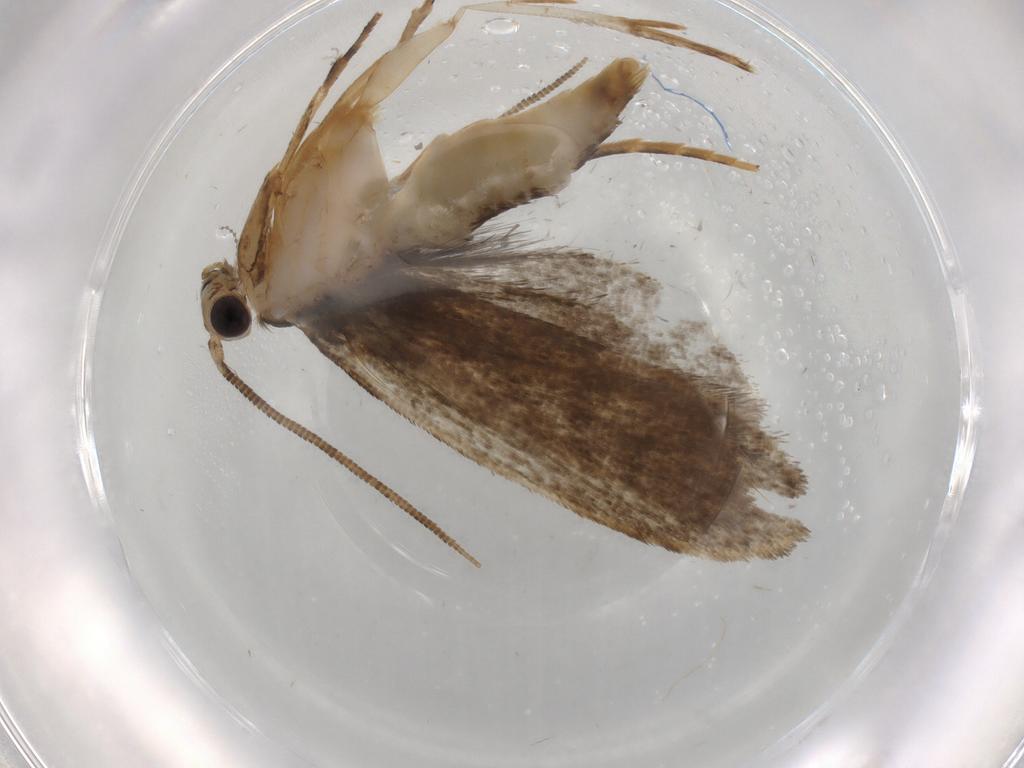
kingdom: Animalia
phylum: Arthropoda
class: Insecta
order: Lepidoptera
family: Tineidae
